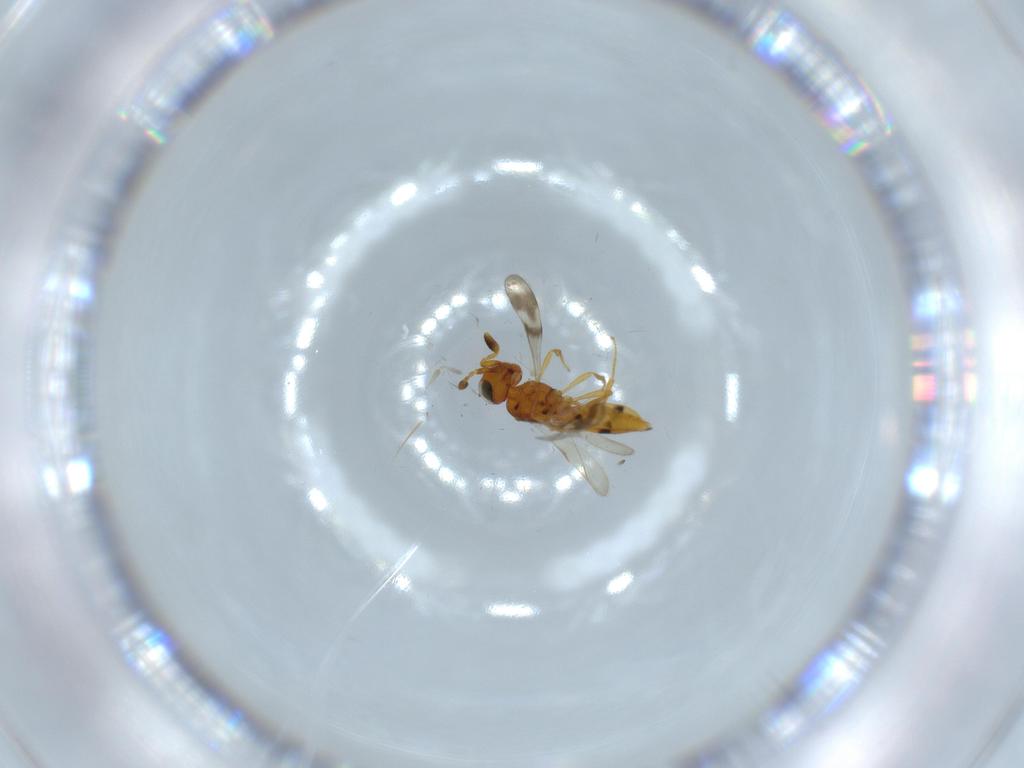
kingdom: Animalia
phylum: Arthropoda
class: Insecta
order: Hymenoptera
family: Scelionidae
